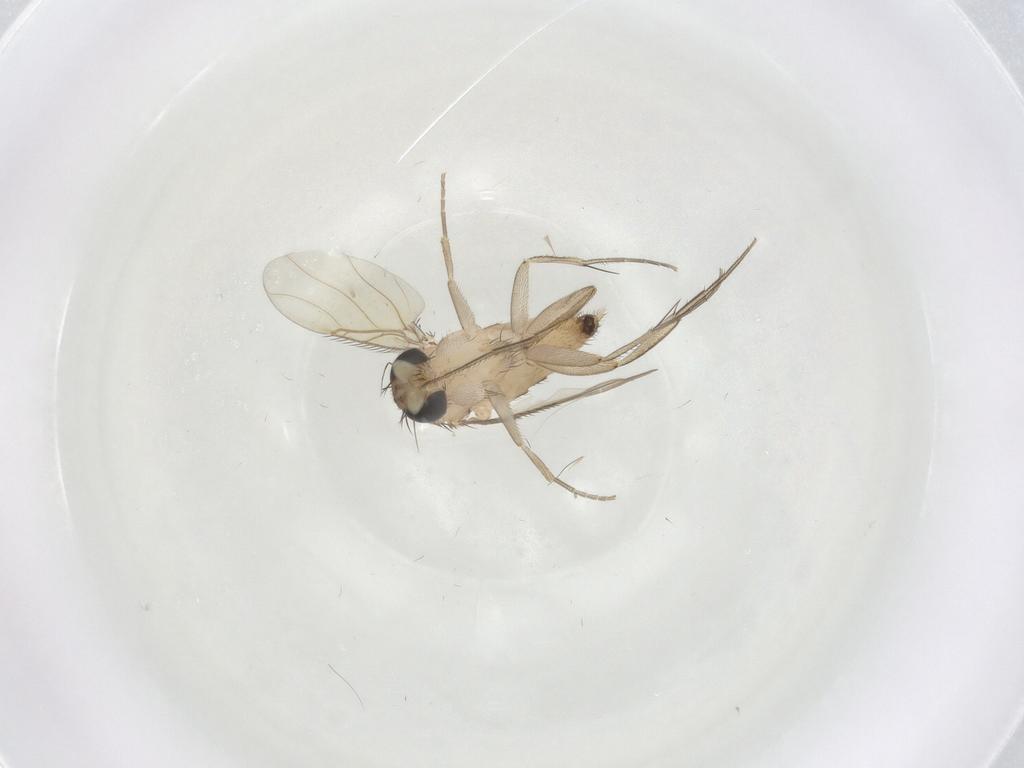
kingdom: Animalia
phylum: Arthropoda
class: Insecta
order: Diptera
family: Phoridae
